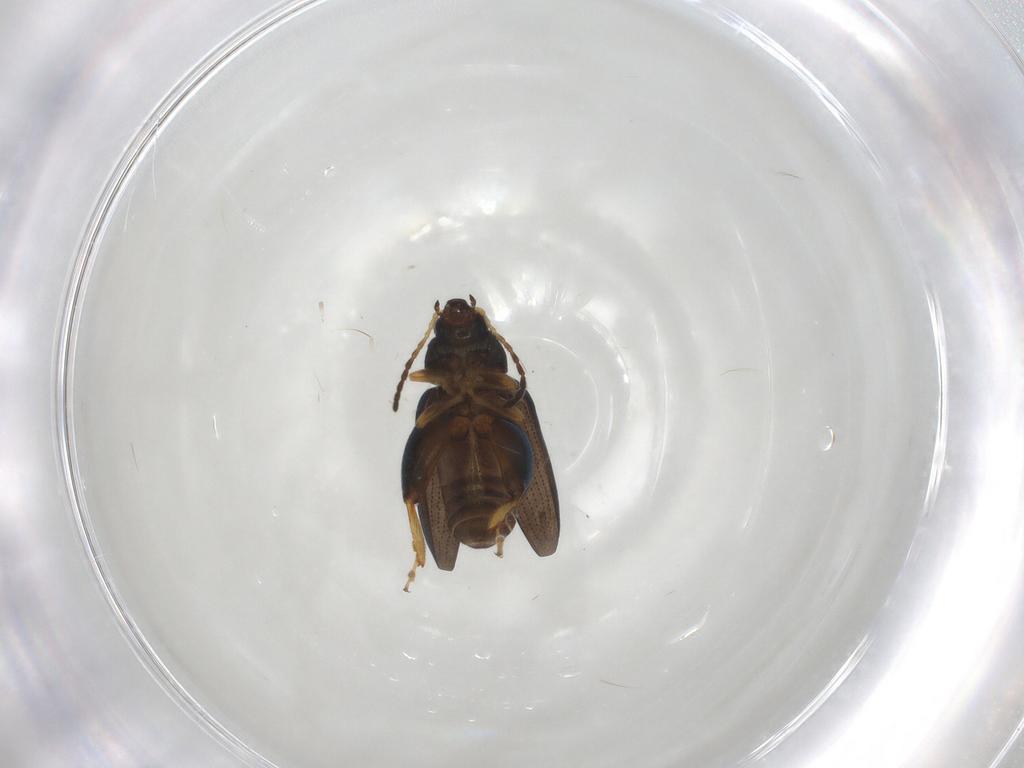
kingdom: Animalia
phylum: Arthropoda
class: Insecta
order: Coleoptera
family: Chrysomelidae
